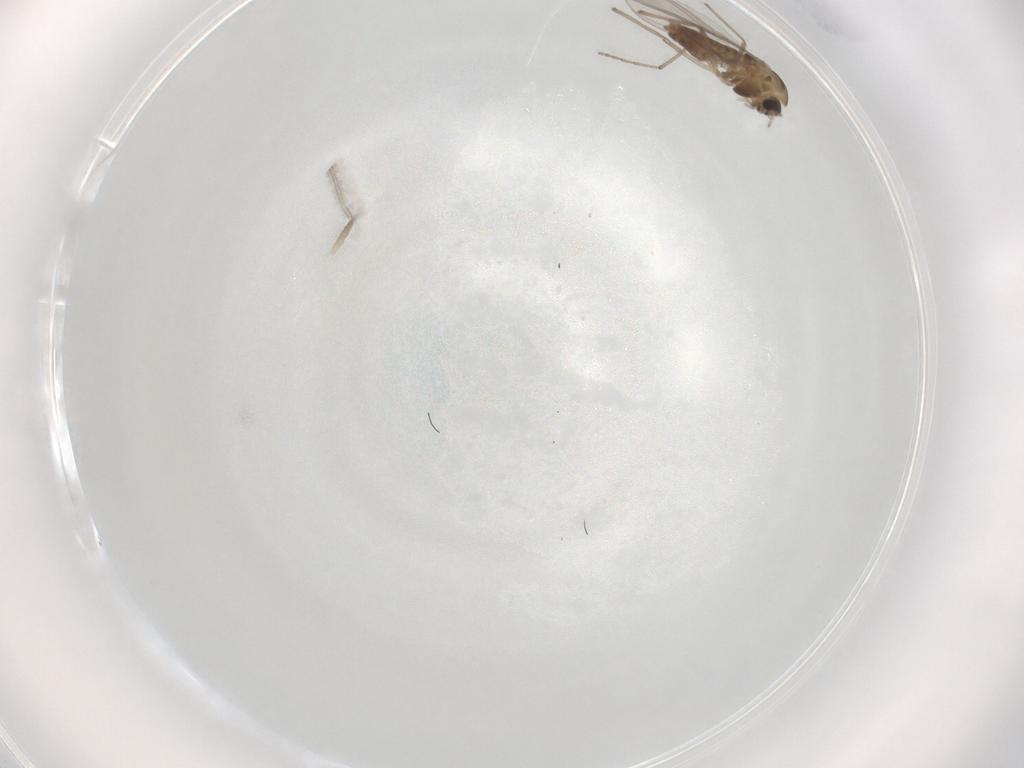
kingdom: Animalia
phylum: Arthropoda
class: Insecta
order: Diptera
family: Chironomidae
